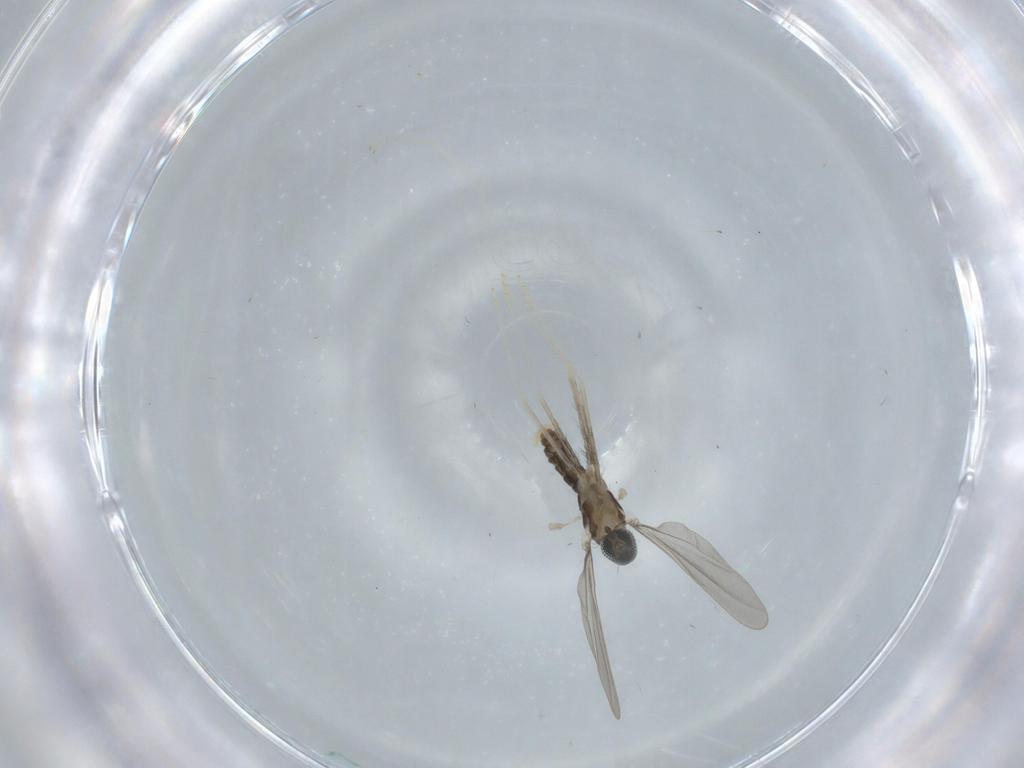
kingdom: Animalia
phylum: Arthropoda
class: Insecta
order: Diptera
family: Cecidomyiidae
